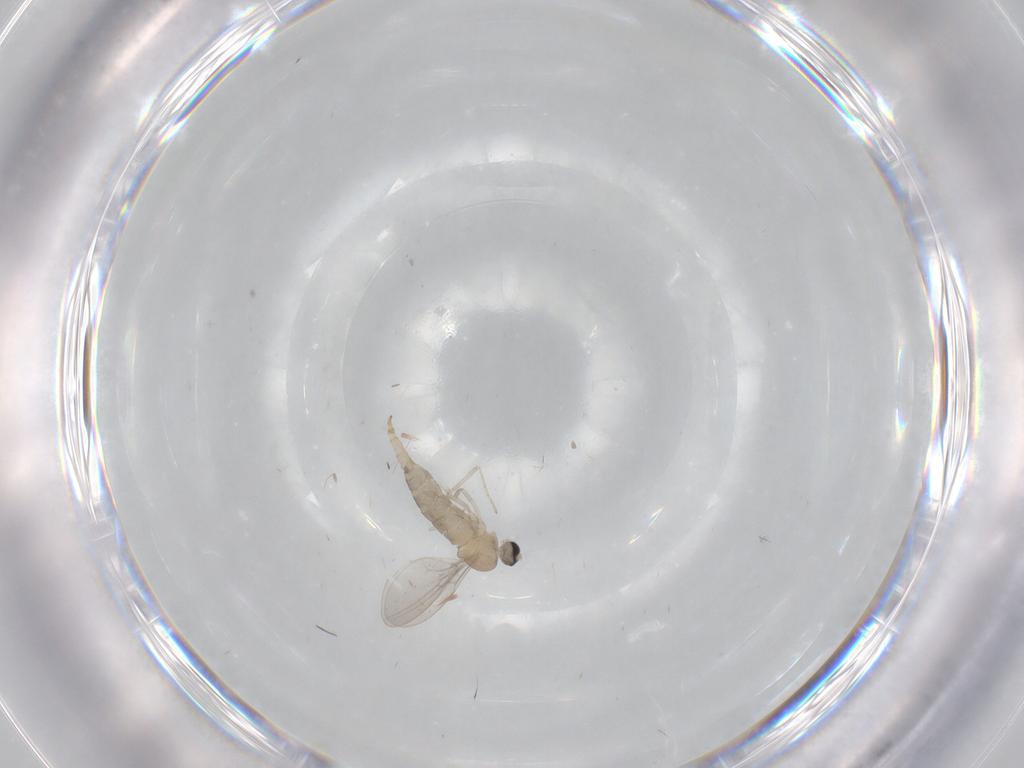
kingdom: Animalia
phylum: Arthropoda
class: Insecta
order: Diptera
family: Cecidomyiidae
